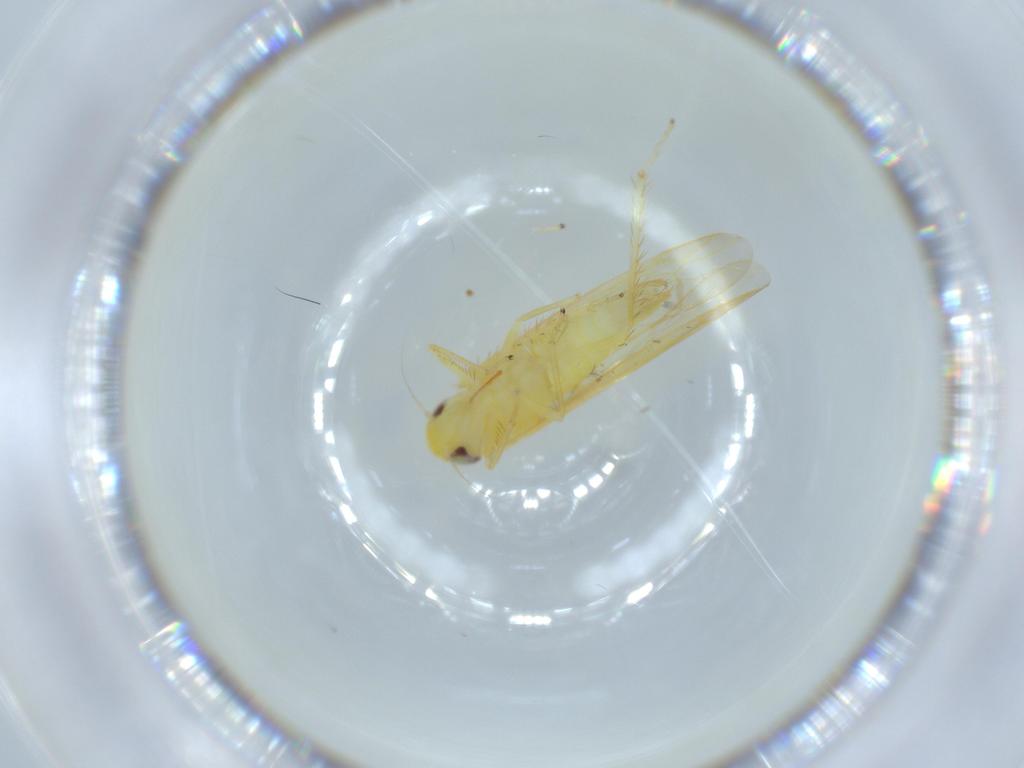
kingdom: Animalia
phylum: Arthropoda
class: Insecta
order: Hemiptera
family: Cicadellidae
